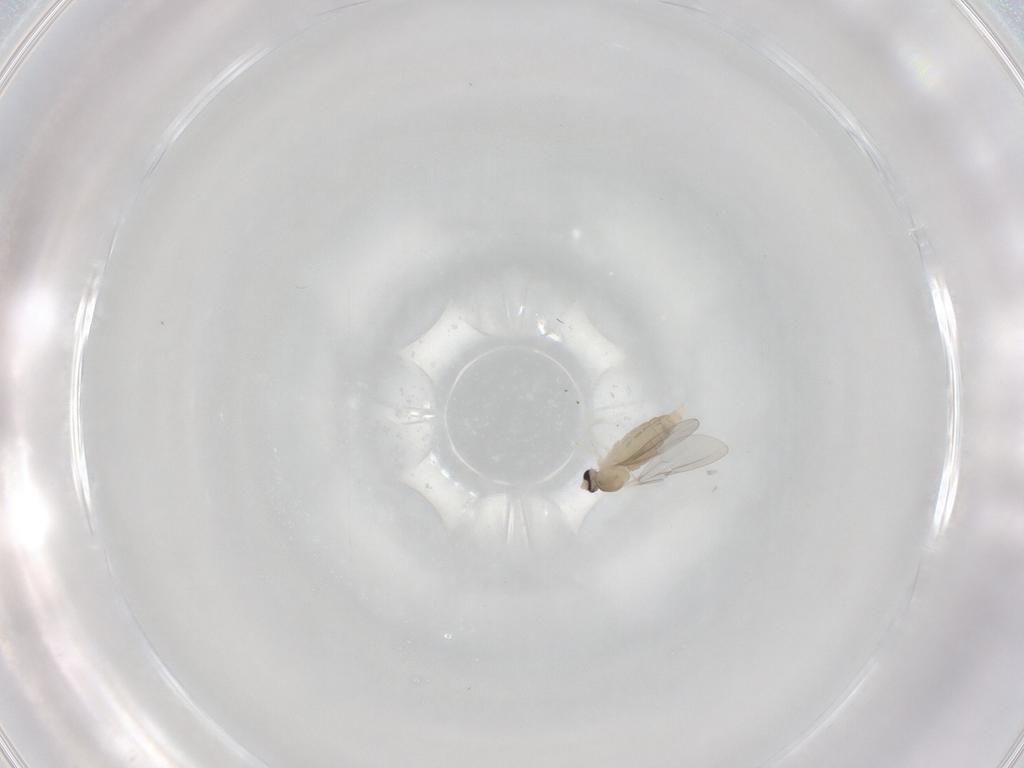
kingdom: Animalia
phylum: Arthropoda
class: Insecta
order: Diptera
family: Cecidomyiidae
